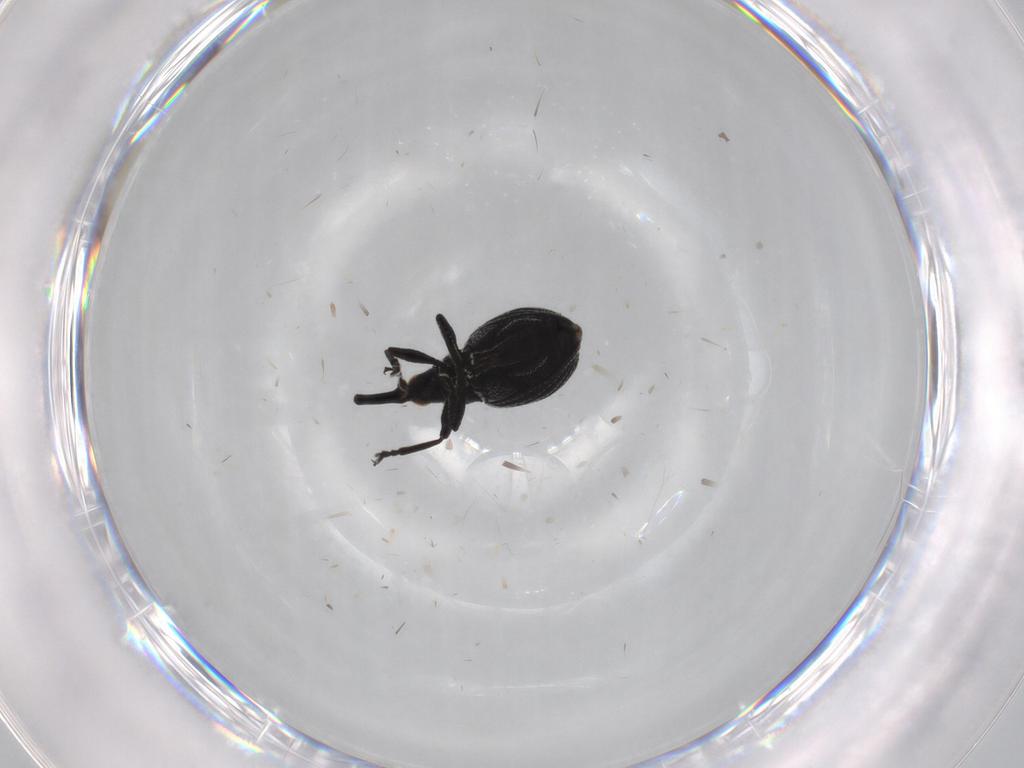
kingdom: Animalia
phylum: Arthropoda
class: Insecta
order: Coleoptera
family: Brentidae
